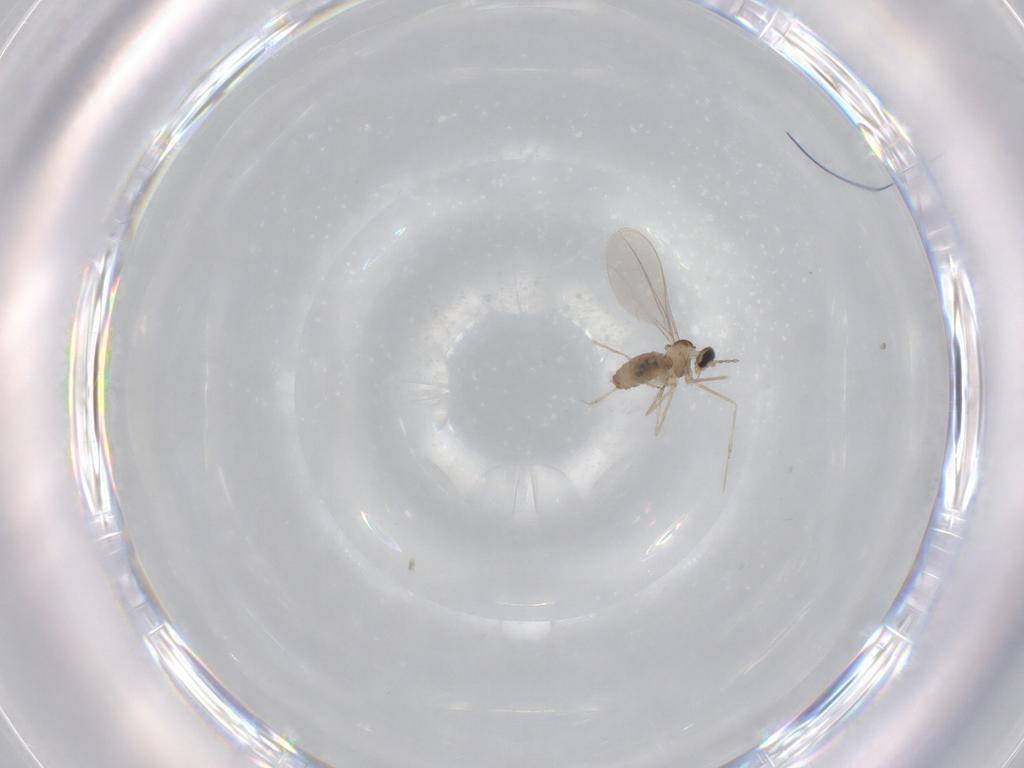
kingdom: Animalia
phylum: Arthropoda
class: Insecta
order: Diptera
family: Cecidomyiidae
